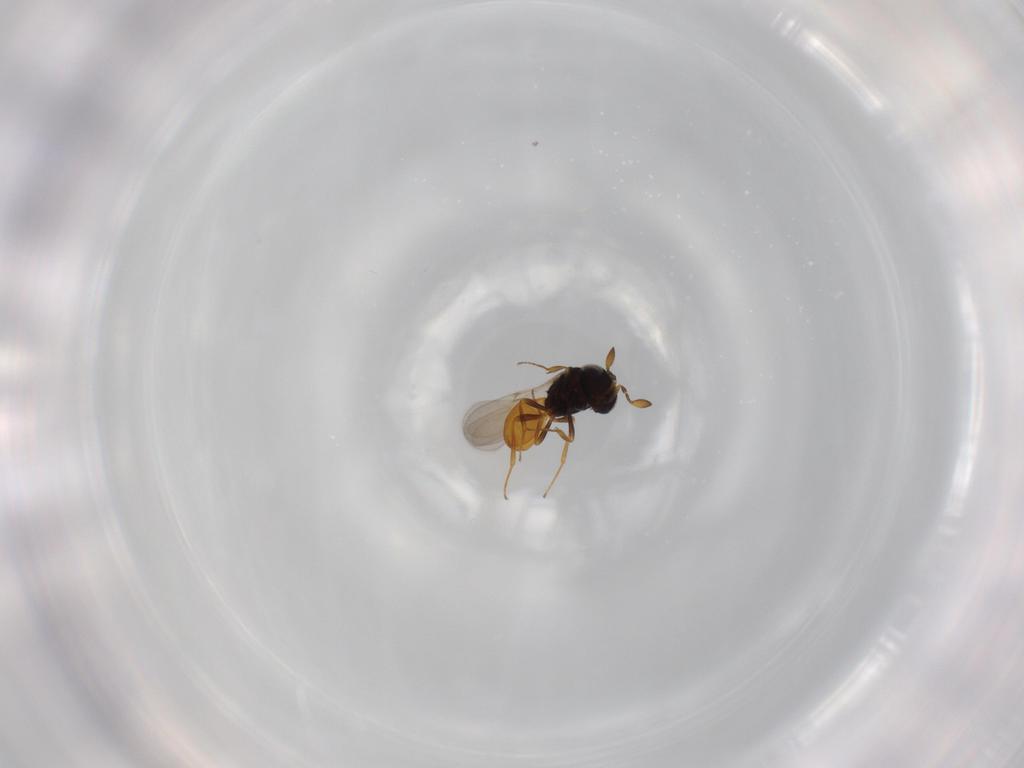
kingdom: Animalia
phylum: Arthropoda
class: Insecta
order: Hymenoptera
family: Scelionidae
